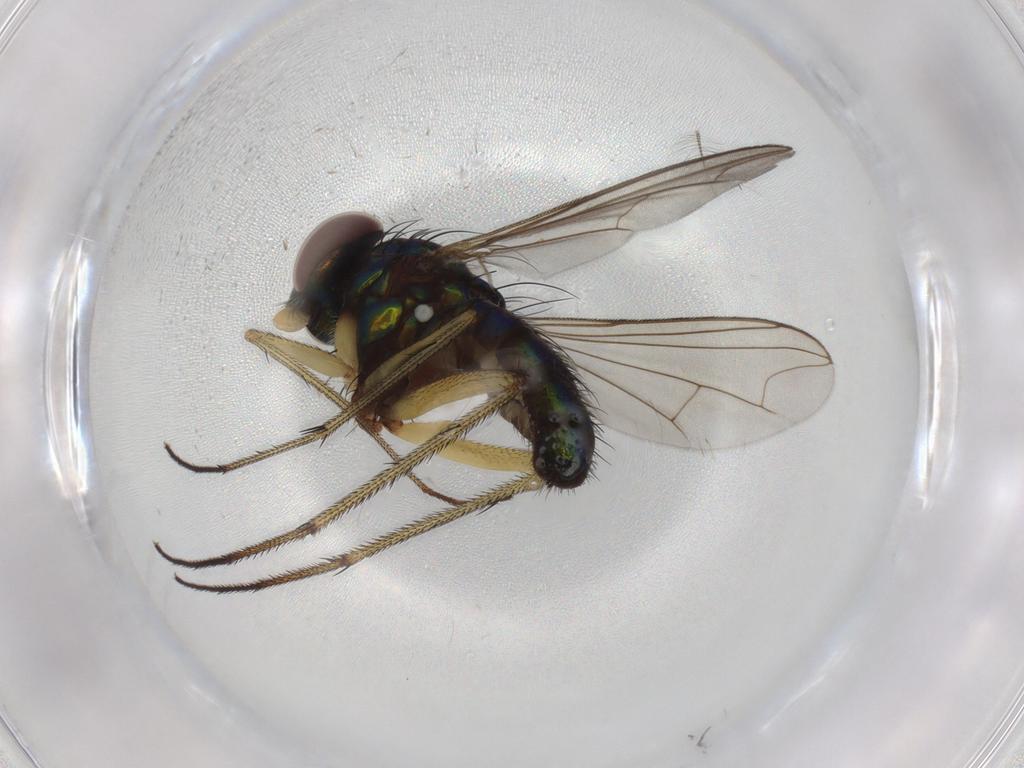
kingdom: Animalia
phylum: Arthropoda
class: Insecta
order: Diptera
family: Dolichopodidae
